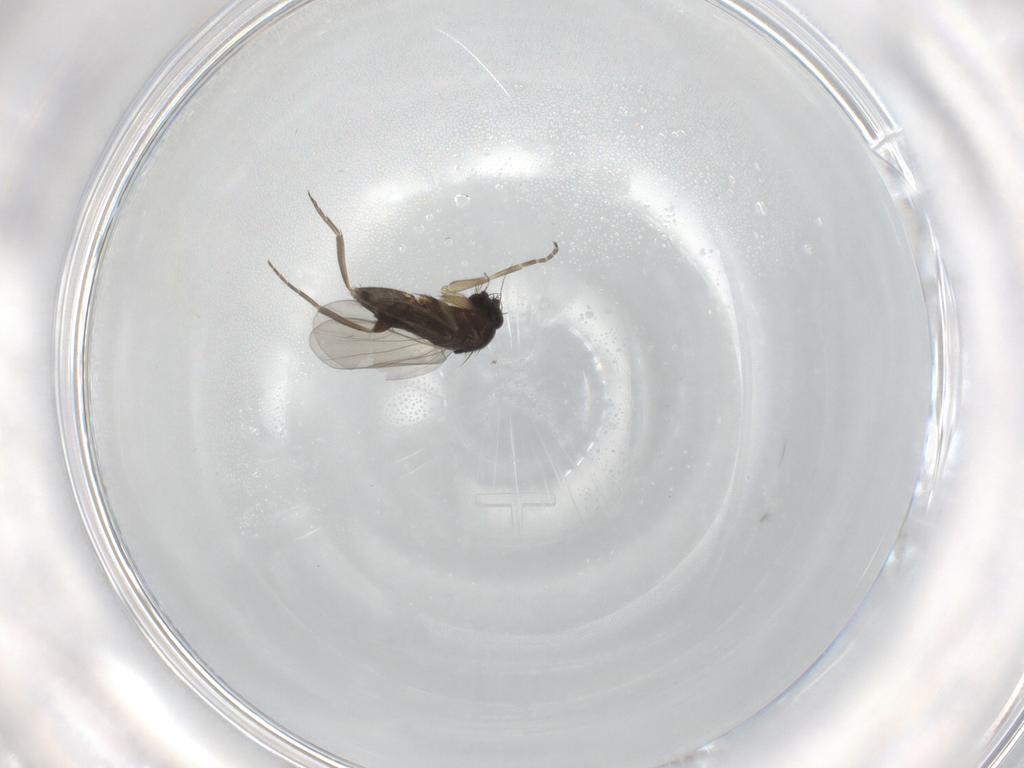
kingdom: Animalia
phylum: Arthropoda
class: Insecta
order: Diptera
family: Phoridae
